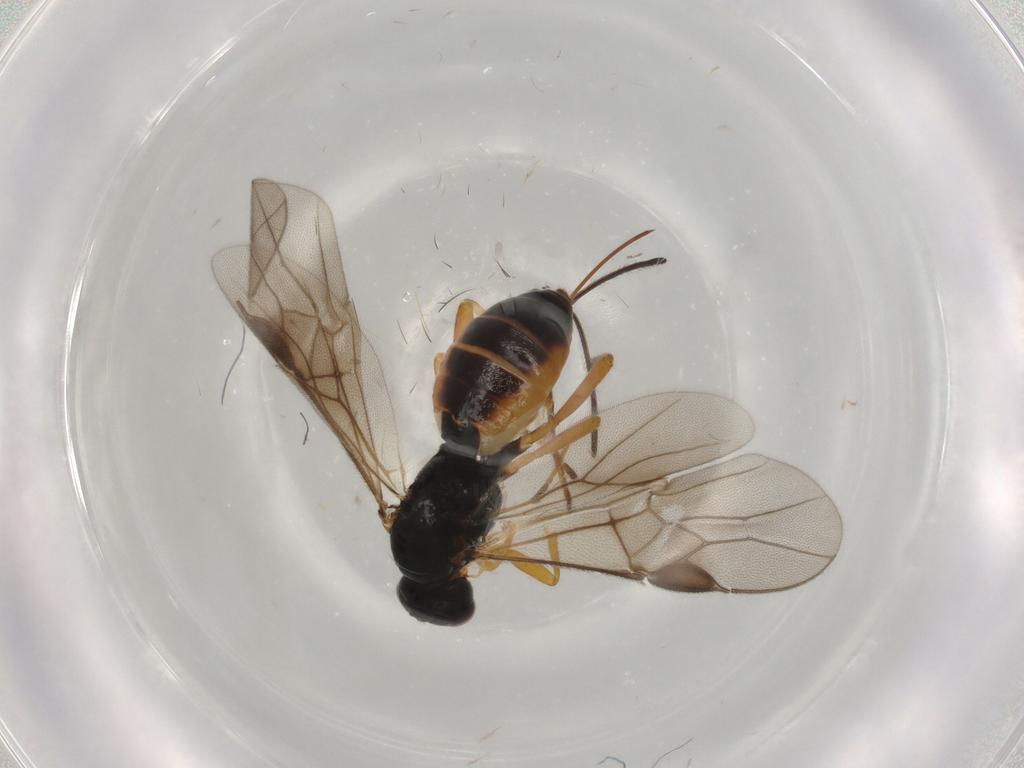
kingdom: Animalia
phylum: Arthropoda
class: Insecta
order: Hymenoptera
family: Braconidae
